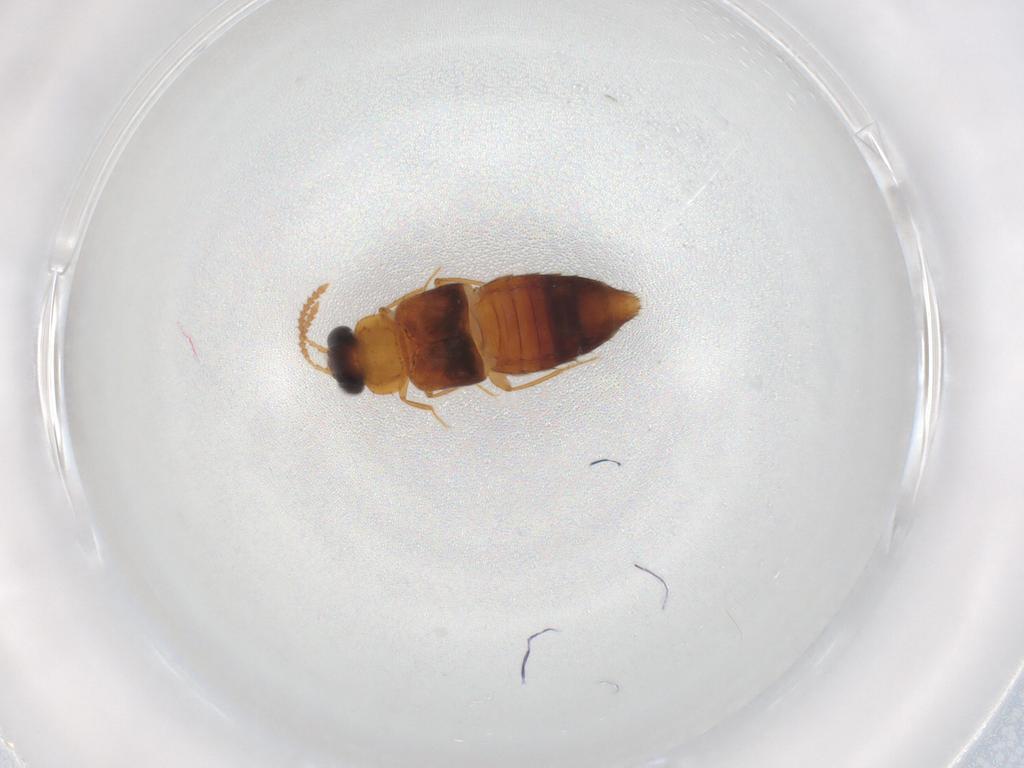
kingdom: Animalia
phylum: Arthropoda
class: Insecta
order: Coleoptera
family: Staphylinidae
